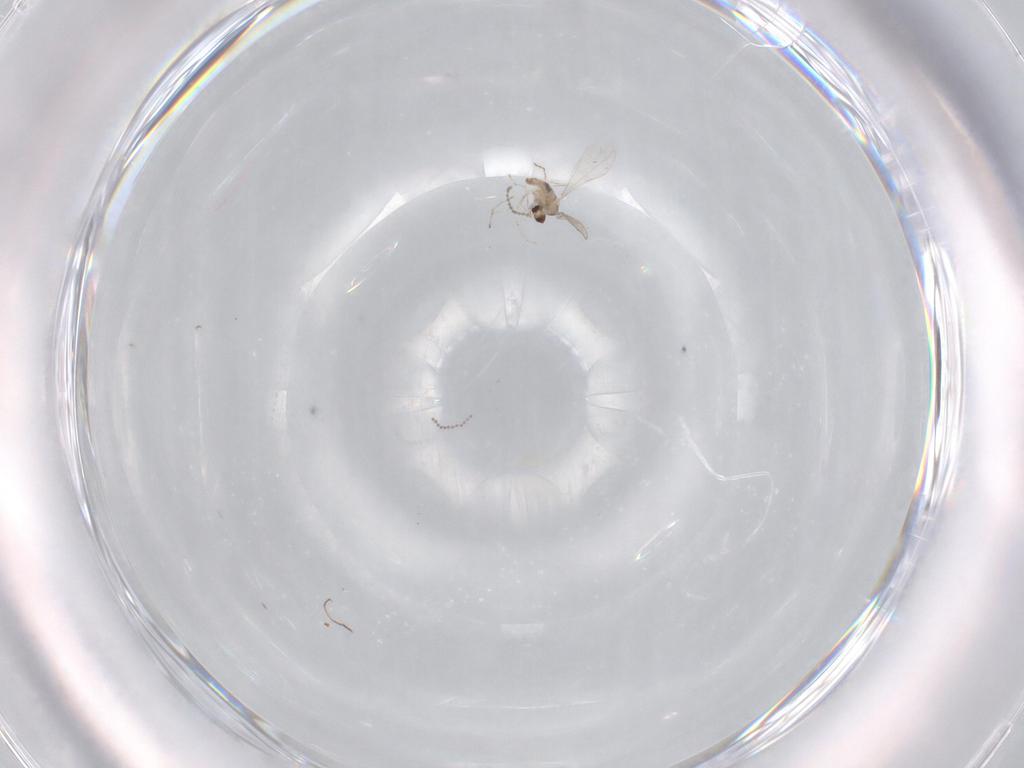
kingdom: Animalia
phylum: Arthropoda
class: Insecta
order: Diptera
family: Cecidomyiidae
